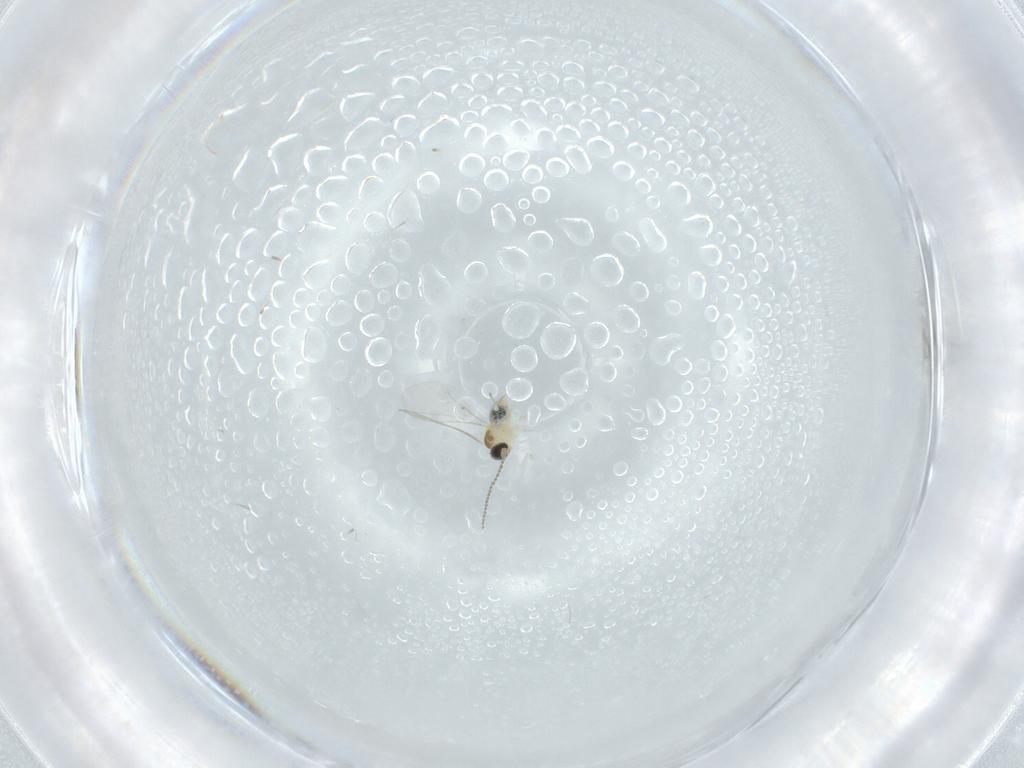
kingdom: Animalia
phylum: Arthropoda
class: Insecta
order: Diptera
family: Cecidomyiidae
